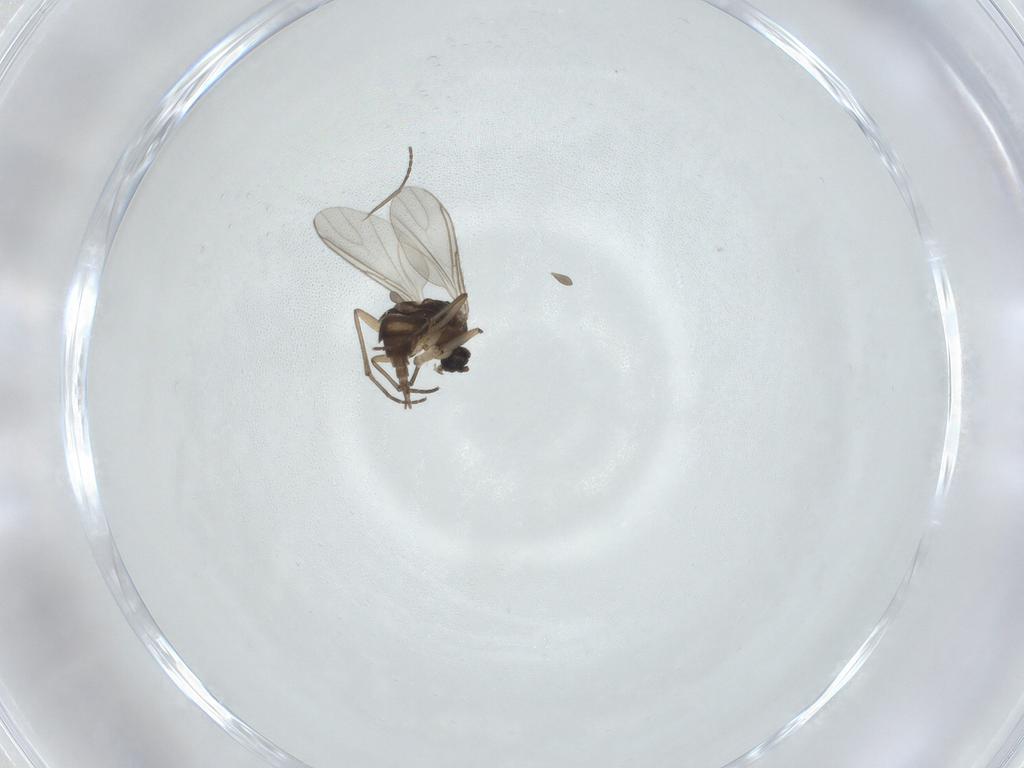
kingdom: Animalia
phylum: Arthropoda
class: Insecta
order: Diptera
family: Sciaridae
